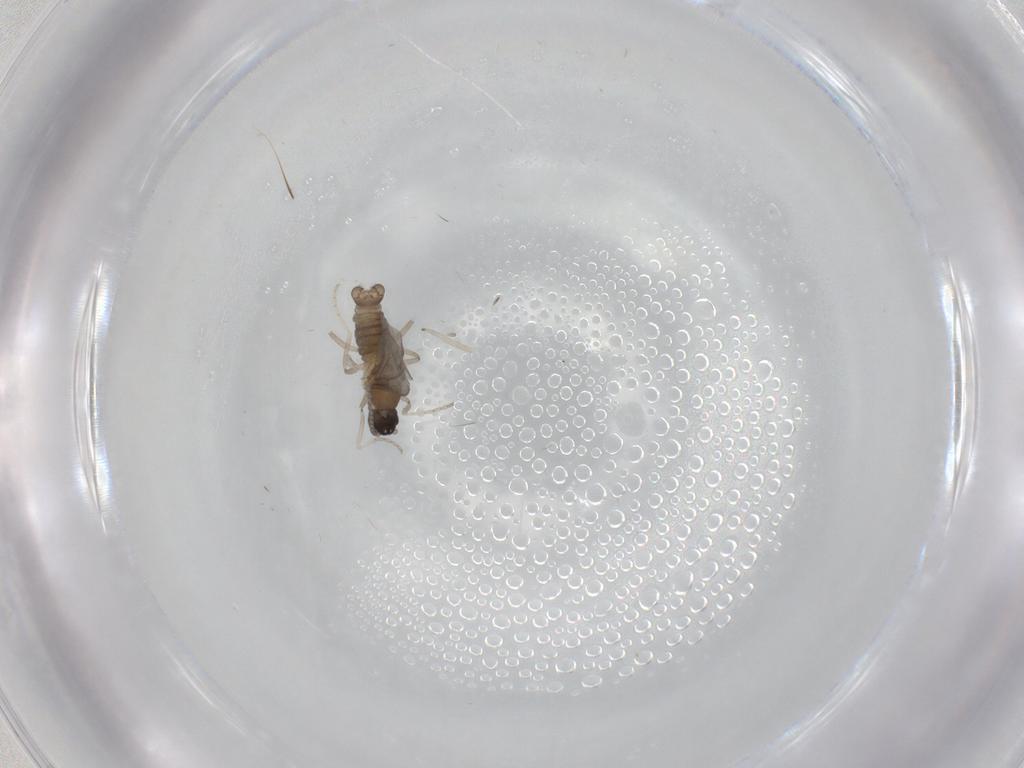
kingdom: Animalia
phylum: Arthropoda
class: Insecta
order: Diptera
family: Cecidomyiidae
